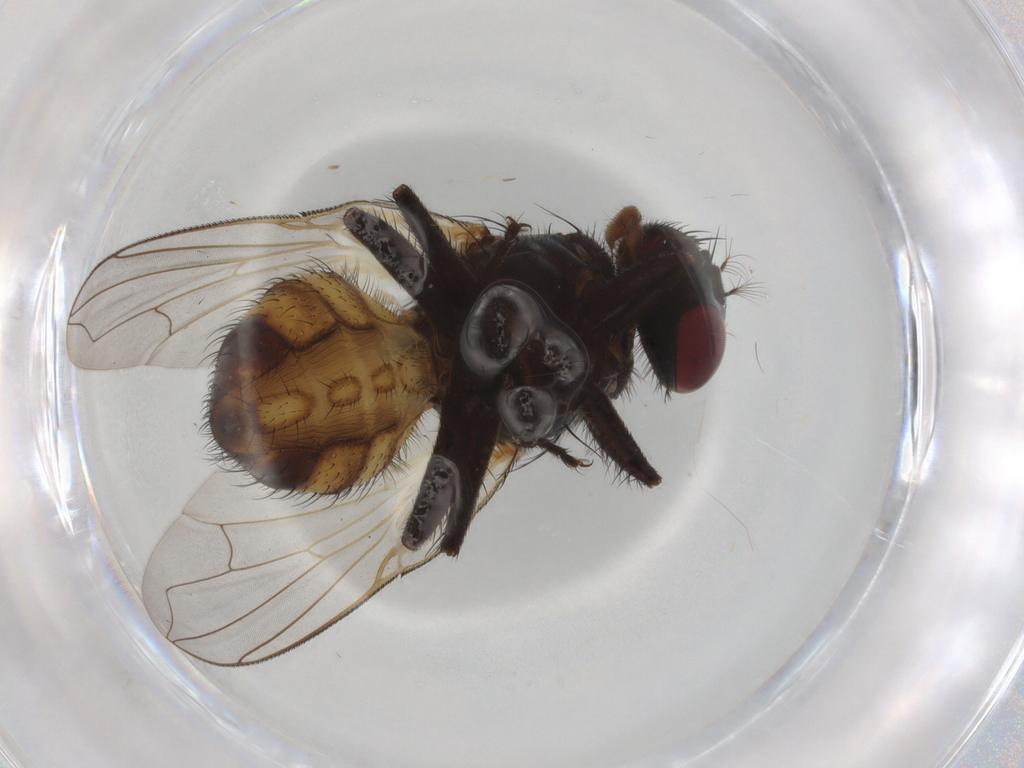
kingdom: Animalia
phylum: Arthropoda
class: Insecta
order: Diptera
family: Muscidae
